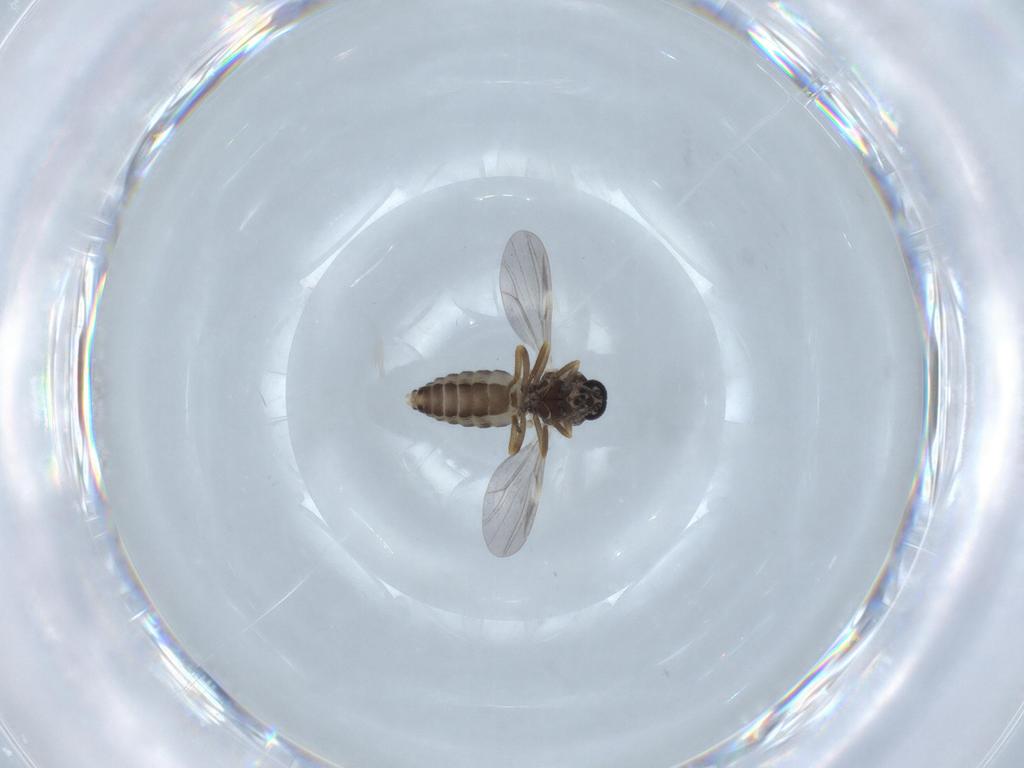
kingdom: Animalia
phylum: Arthropoda
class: Insecta
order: Diptera
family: Ceratopogonidae
